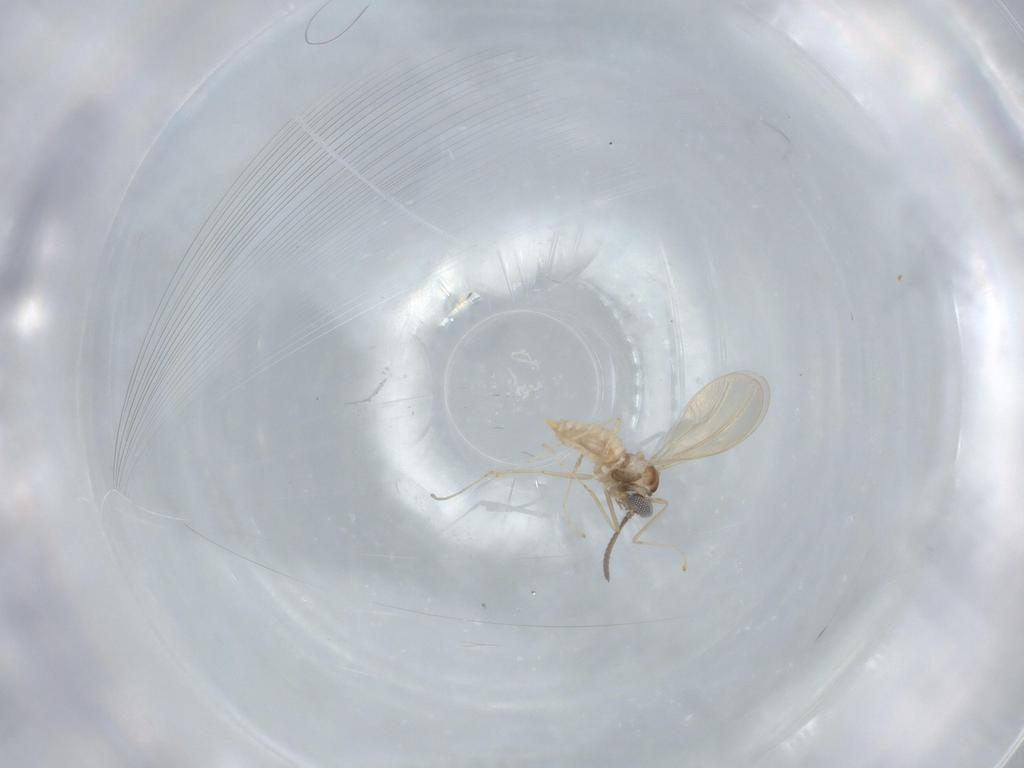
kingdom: Animalia
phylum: Arthropoda
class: Insecta
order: Diptera
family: Cecidomyiidae
